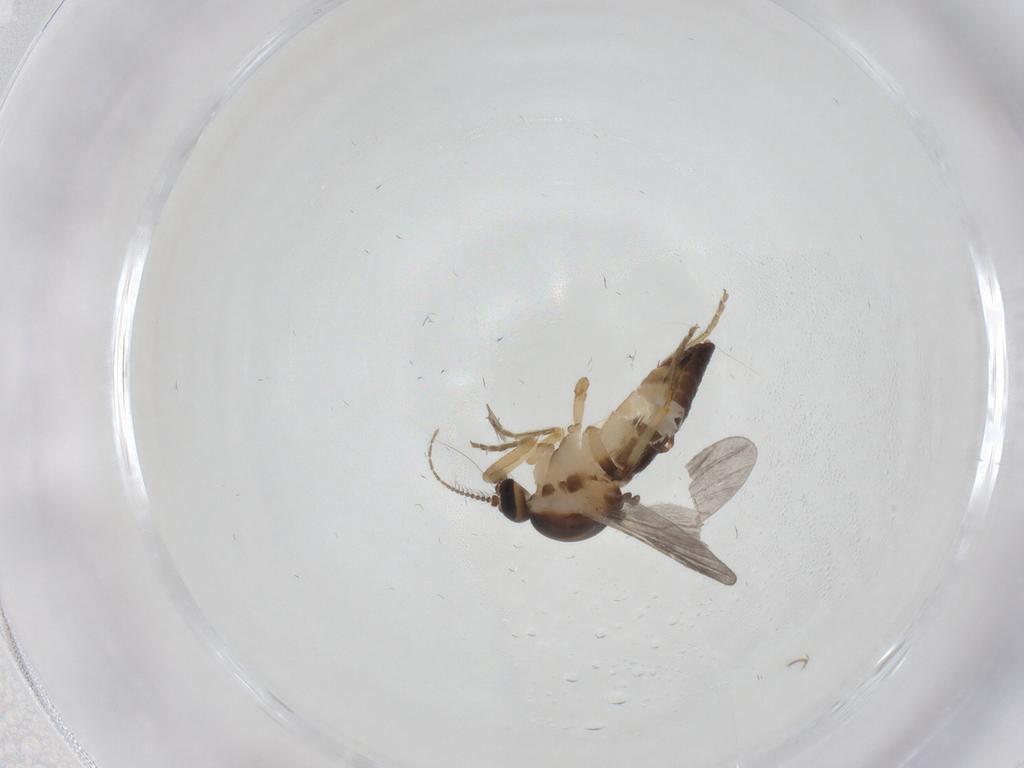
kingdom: Animalia
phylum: Arthropoda
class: Insecta
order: Diptera
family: Ceratopogonidae
